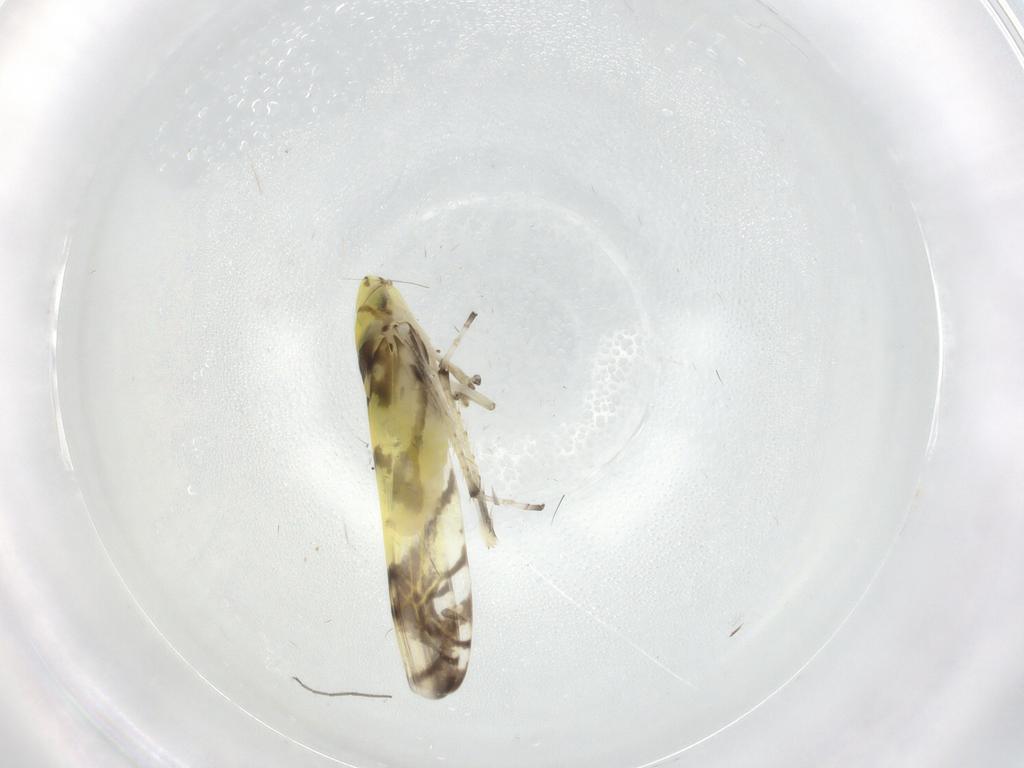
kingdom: Animalia
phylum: Arthropoda
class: Insecta
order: Hemiptera
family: Cicadellidae
